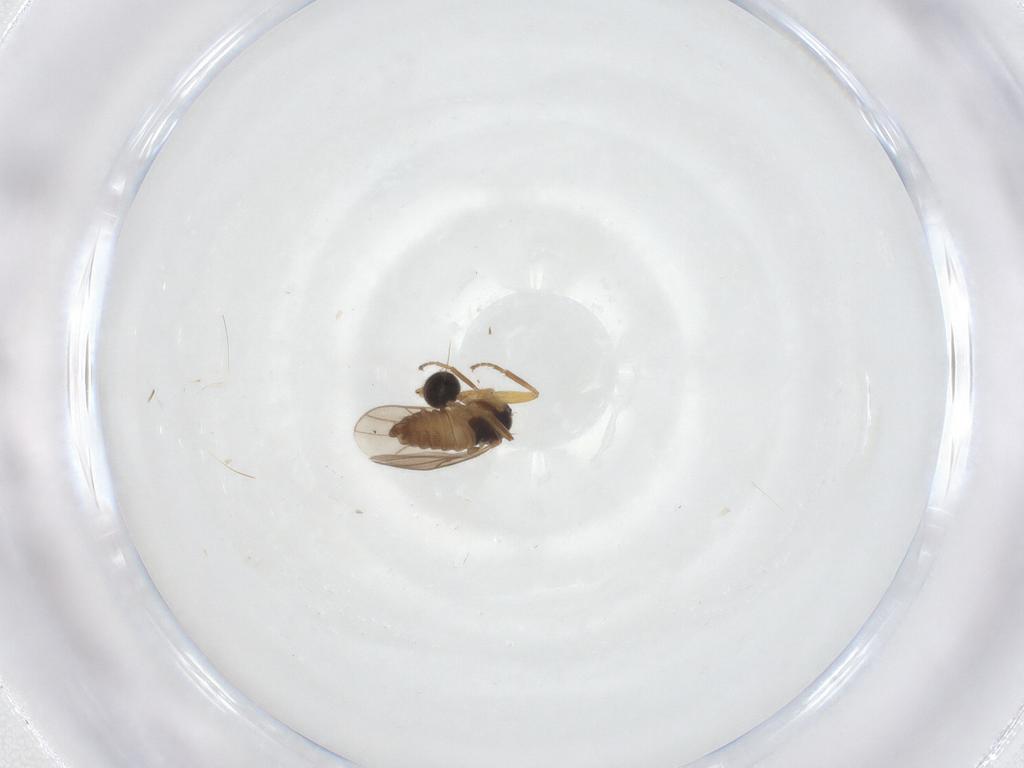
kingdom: Animalia
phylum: Arthropoda
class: Insecta
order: Diptera
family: Hybotidae
